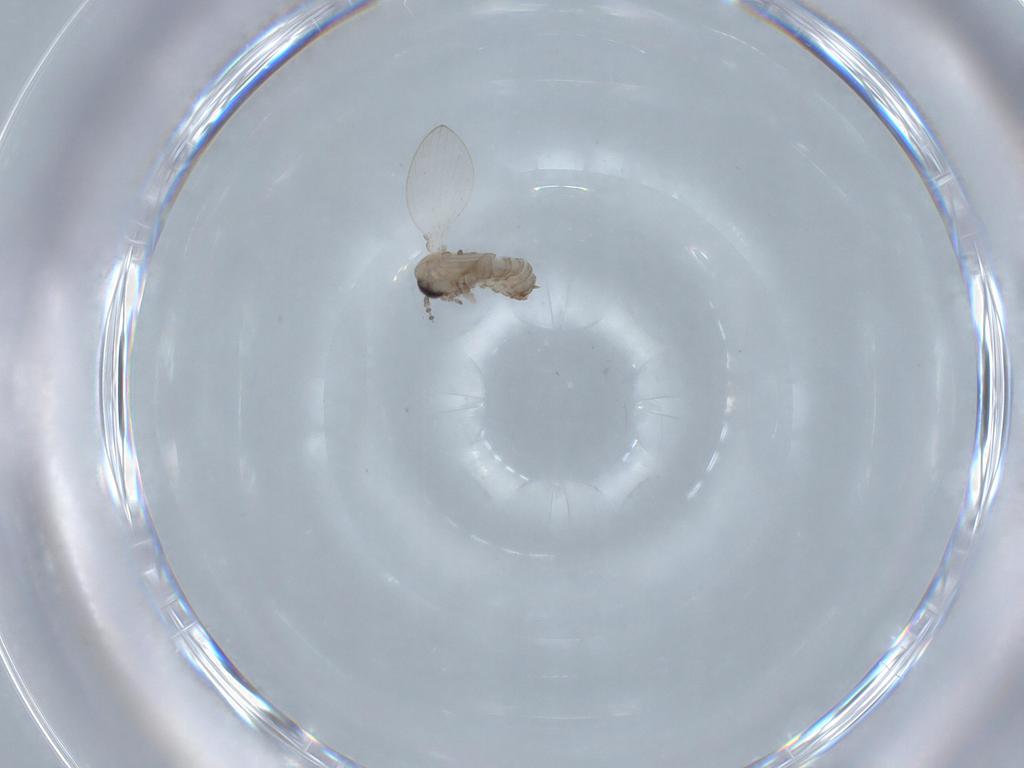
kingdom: Animalia
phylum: Arthropoda
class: Insecta
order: Diptera
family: Psychodidae
